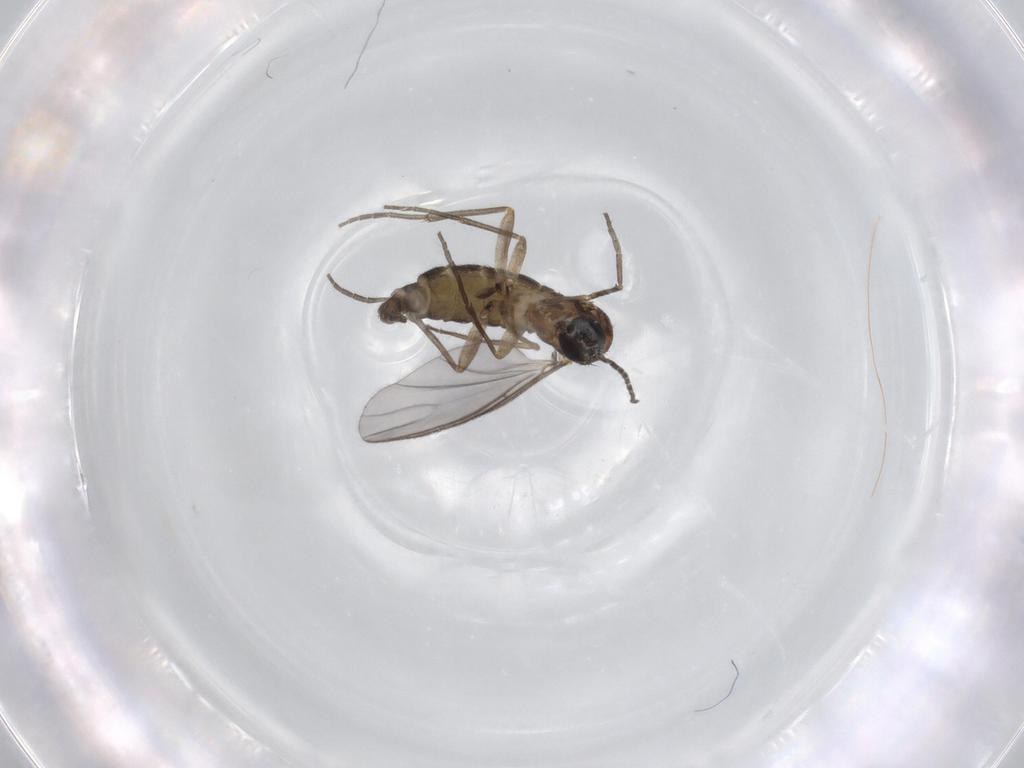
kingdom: Animalia
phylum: Arthropoda
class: Insecta
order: Diptera
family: Sciaridae
